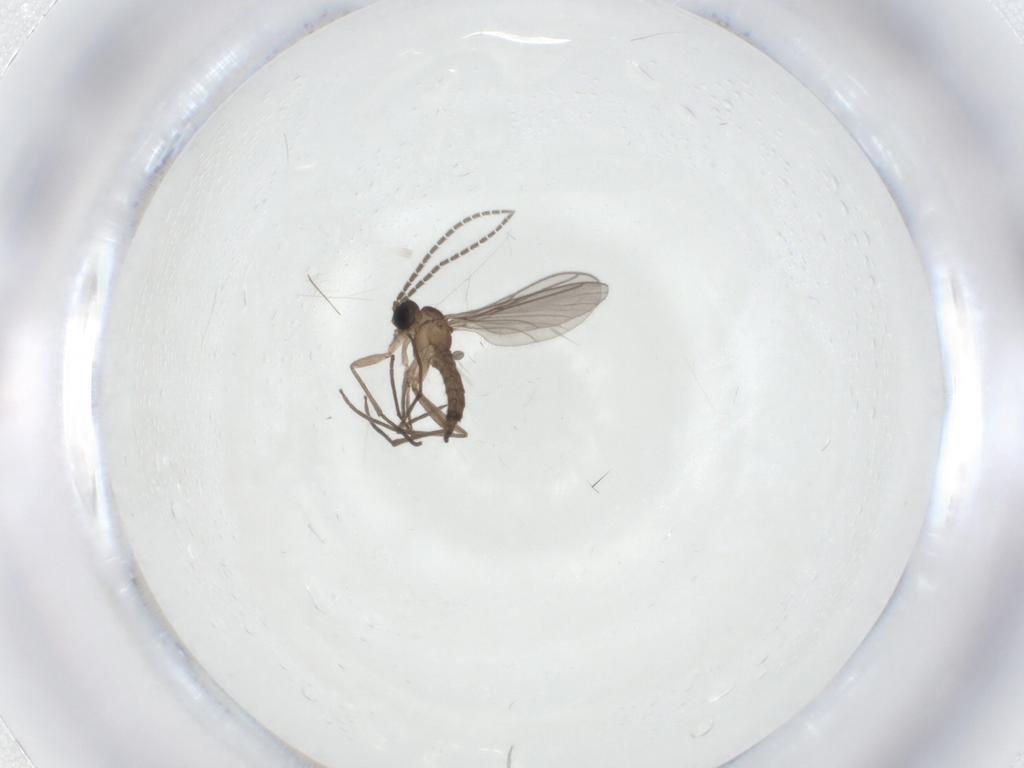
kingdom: Animalia
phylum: Arthropoda
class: Insecta
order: Diptera
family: Sciaridae
